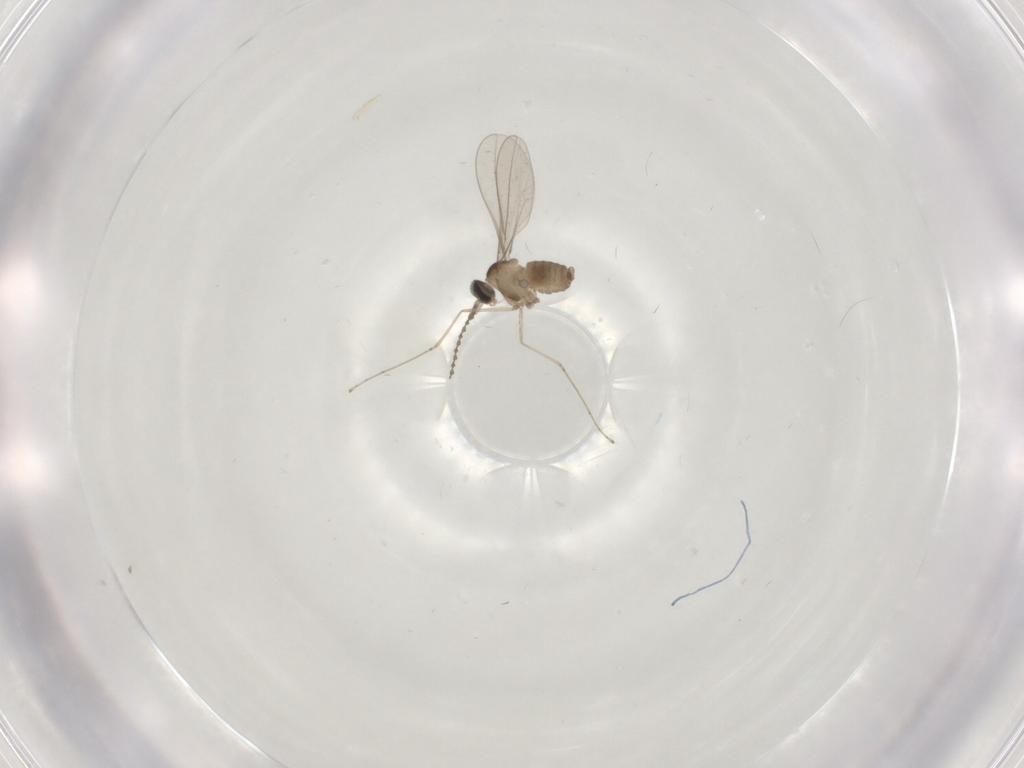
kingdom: Animalia
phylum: Arthropoda
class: Insecta
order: Diptera
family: Cecidomyiidae
